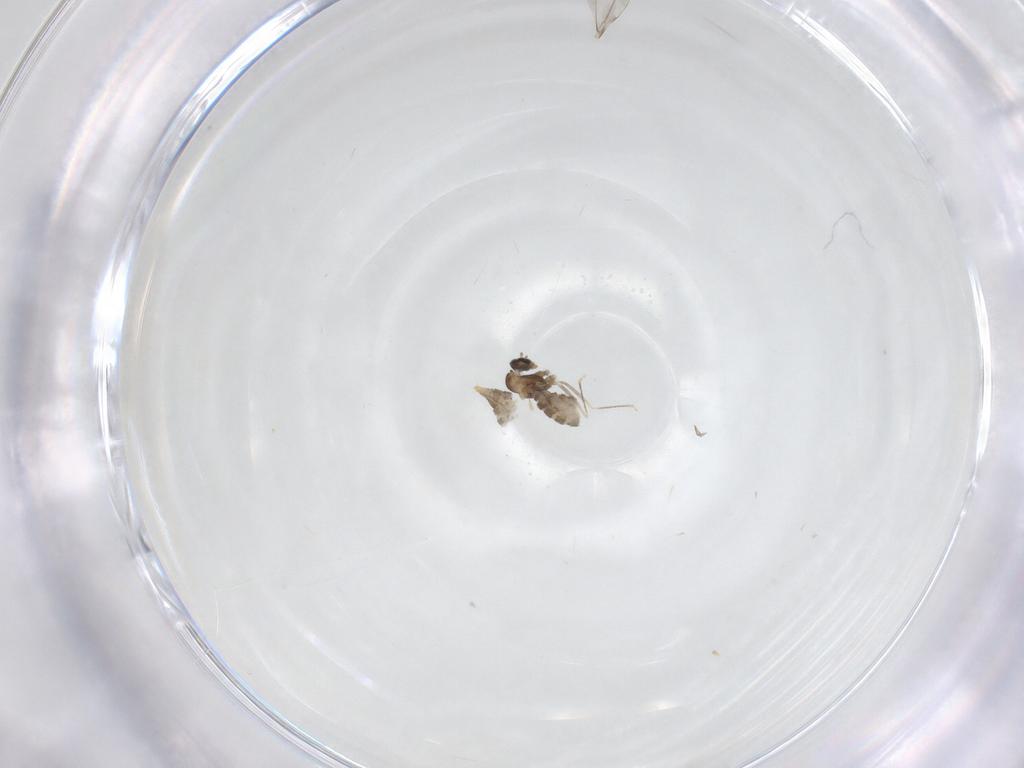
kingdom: Animalia
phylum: Arthropoda
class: Insecta
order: Diptera
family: Cecidomyiidae
